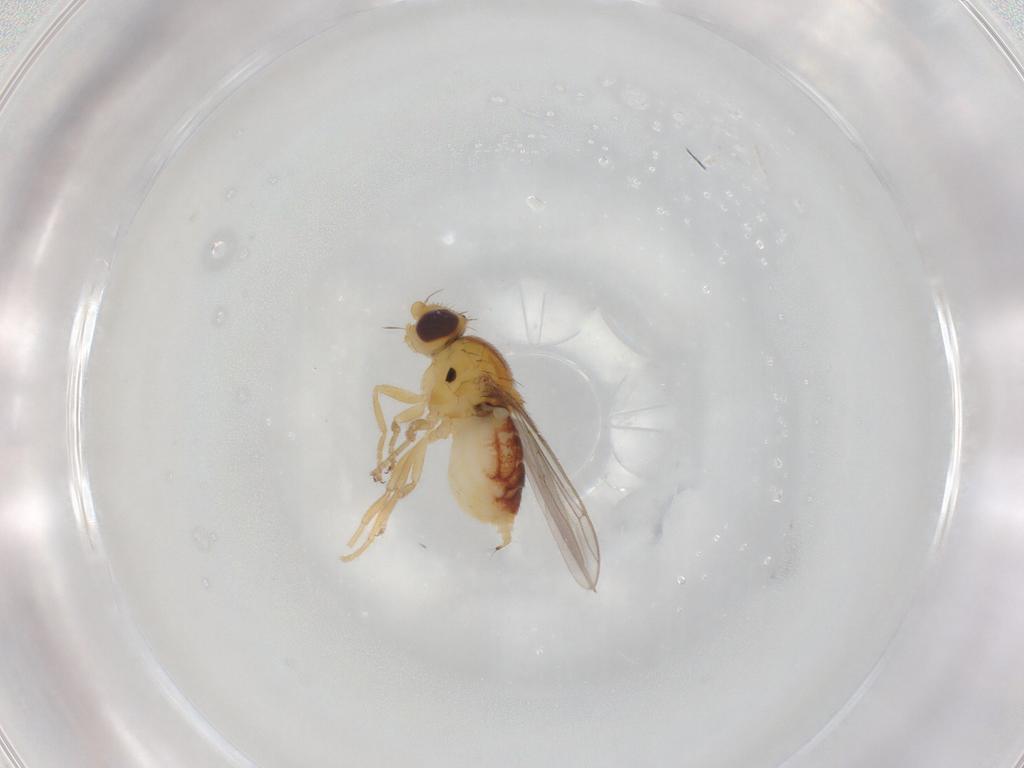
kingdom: Animalia
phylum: Arthropoda
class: Insecta
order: Diptera
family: Chloropidae
